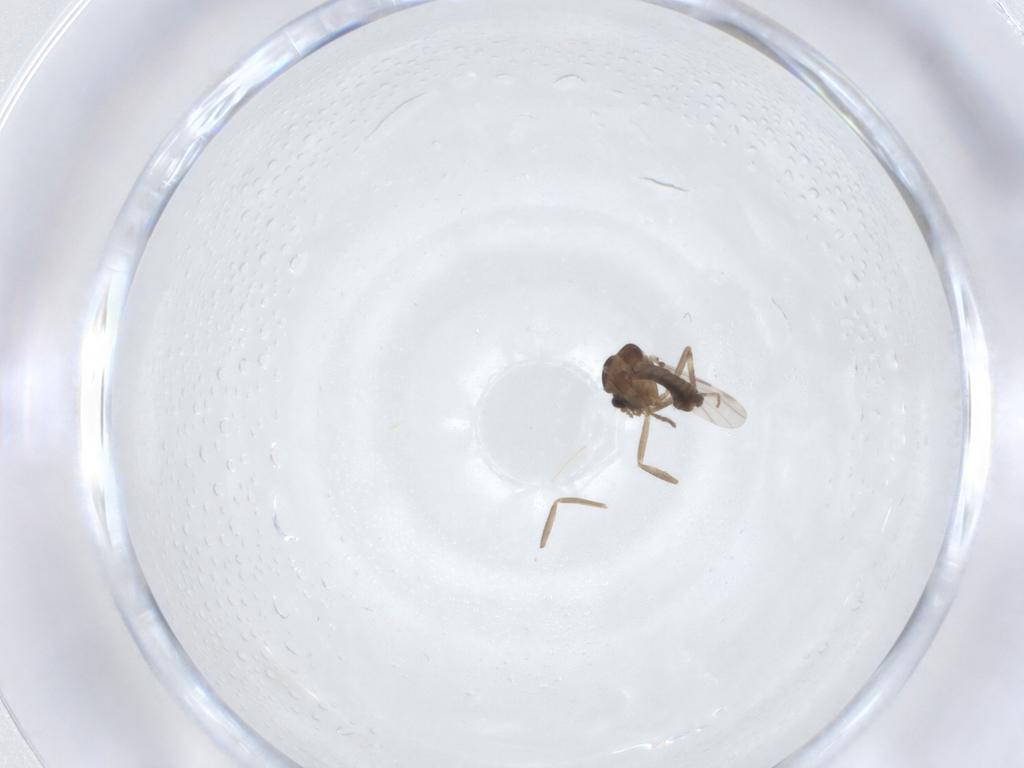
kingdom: Animalia
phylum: Arthropoda
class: Insecta
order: Diptera
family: Ceratopogonidae
